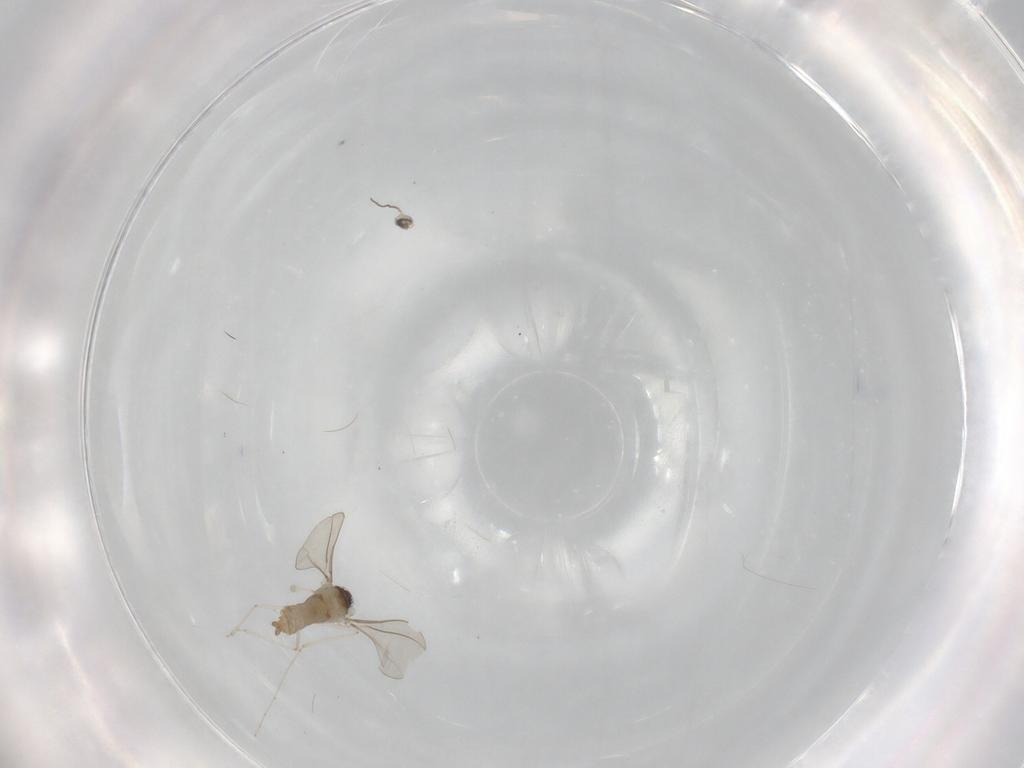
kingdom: Animalia
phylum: Arthropoda
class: Insecta
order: Diptera
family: Cecidomyiidae
